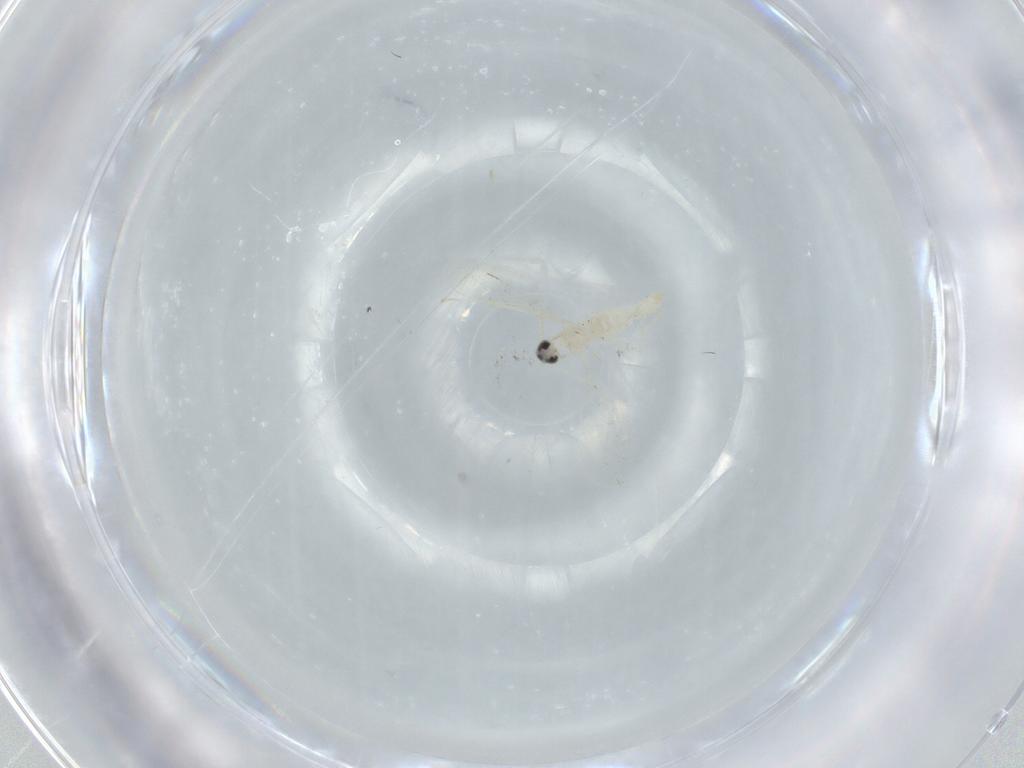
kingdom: Animalia
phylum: Arthropoda
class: Insecta
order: Diptera
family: Cecidomyiidae
